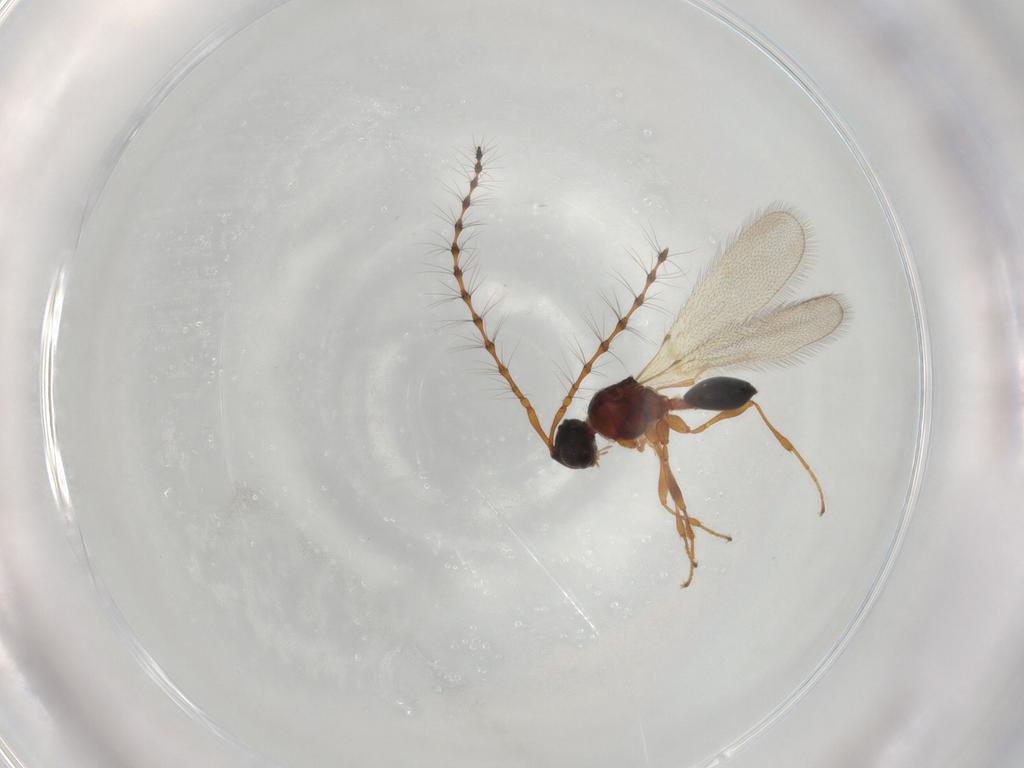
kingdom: Animalia
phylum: Arthropoda
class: Insecta
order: Hymenoptera
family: Diapriidae
